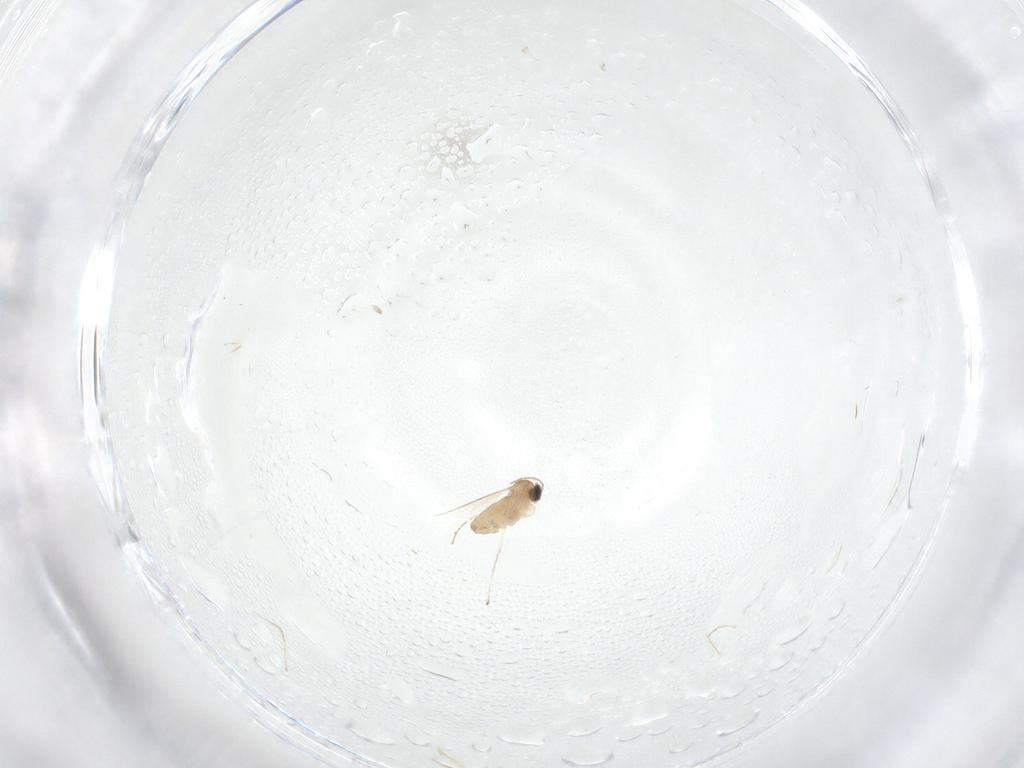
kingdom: Animalia
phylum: Arthropoda
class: Insecta
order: Diptera
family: Cecidomyiidae
